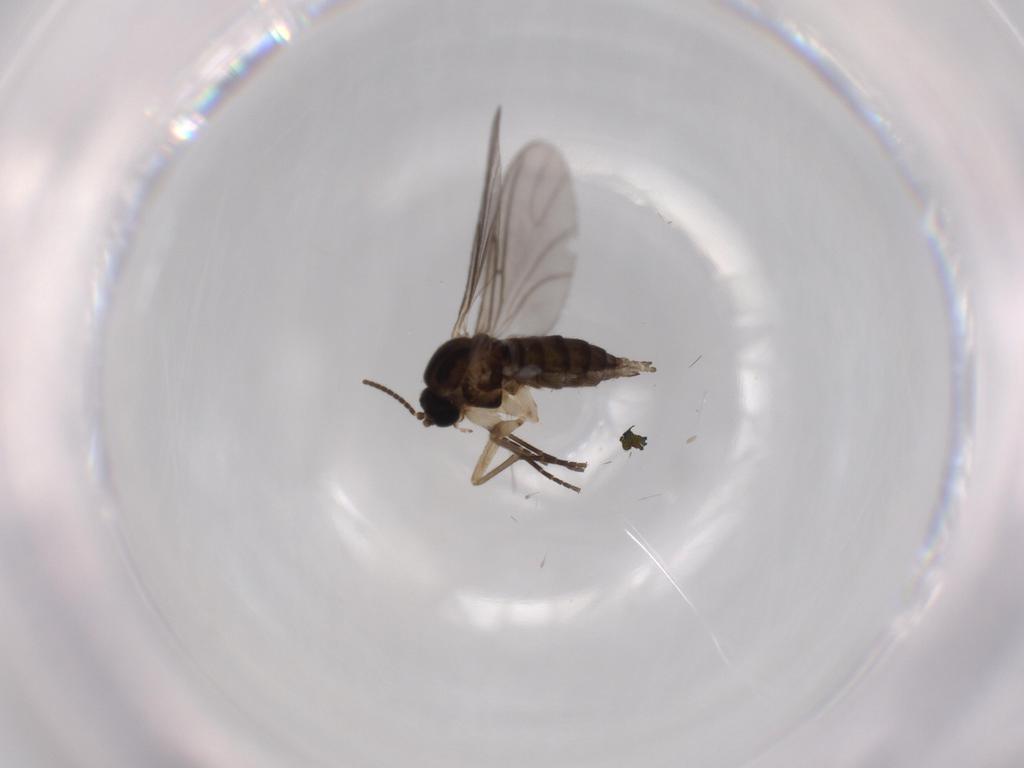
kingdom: Animalia
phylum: Arthropoda
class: Insecta
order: Diptera
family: Sciaridae
